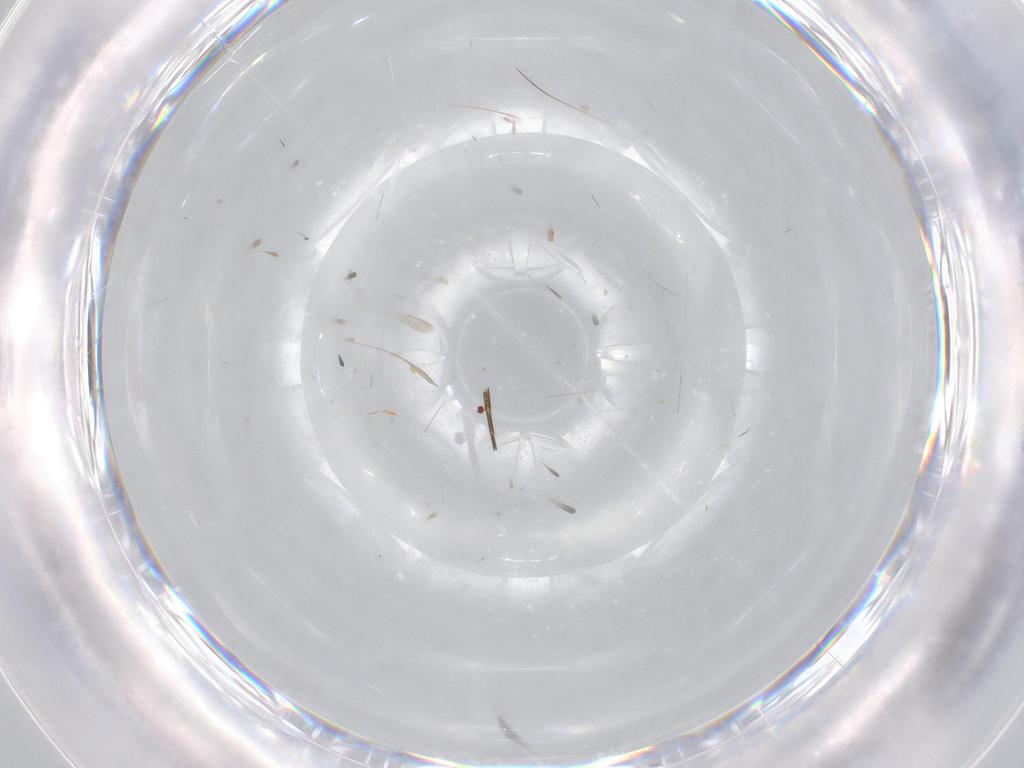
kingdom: Animalia
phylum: Arthropoda
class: Insecta
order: Diptera
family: Phoridae
